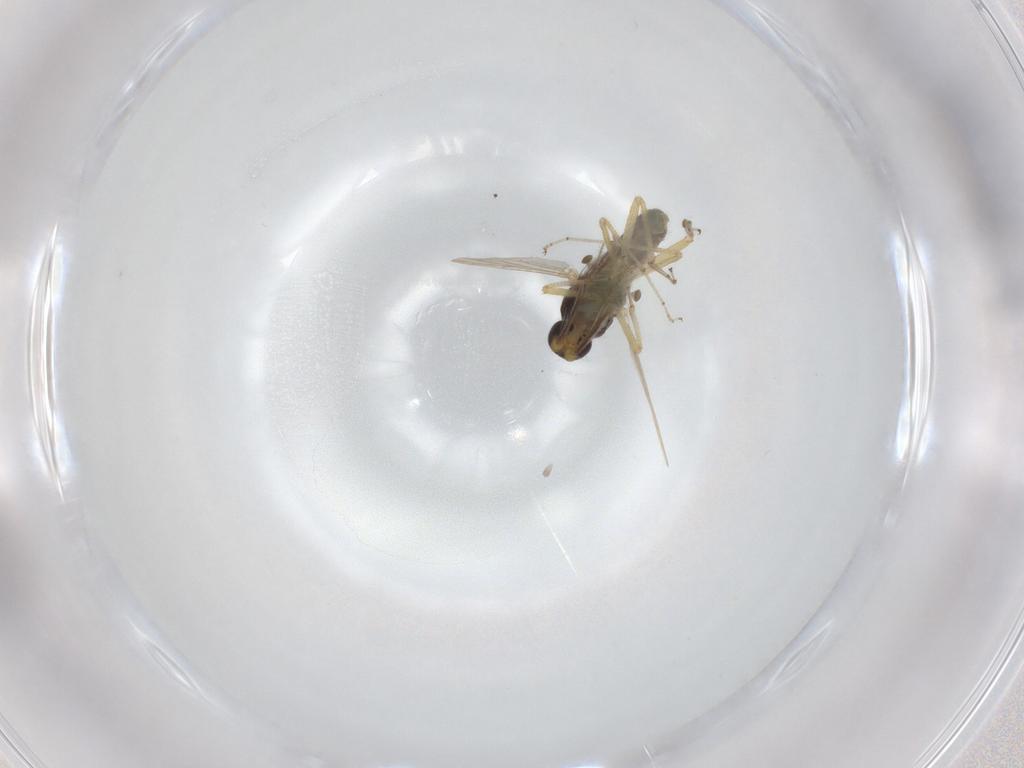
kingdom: Animalia
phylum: Arthropoda
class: Insecta
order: Diptera
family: Ceratopogonidae
